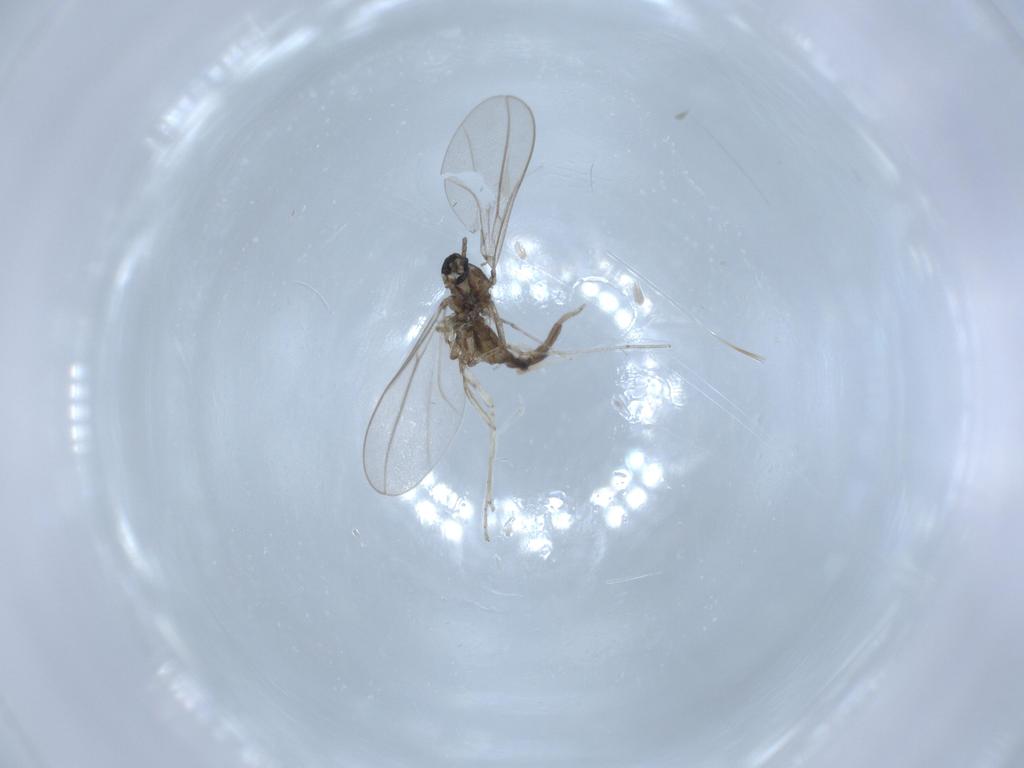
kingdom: Animalia
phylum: Arthropoda
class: Insecta
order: Diptera
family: Cecidomyiidae
